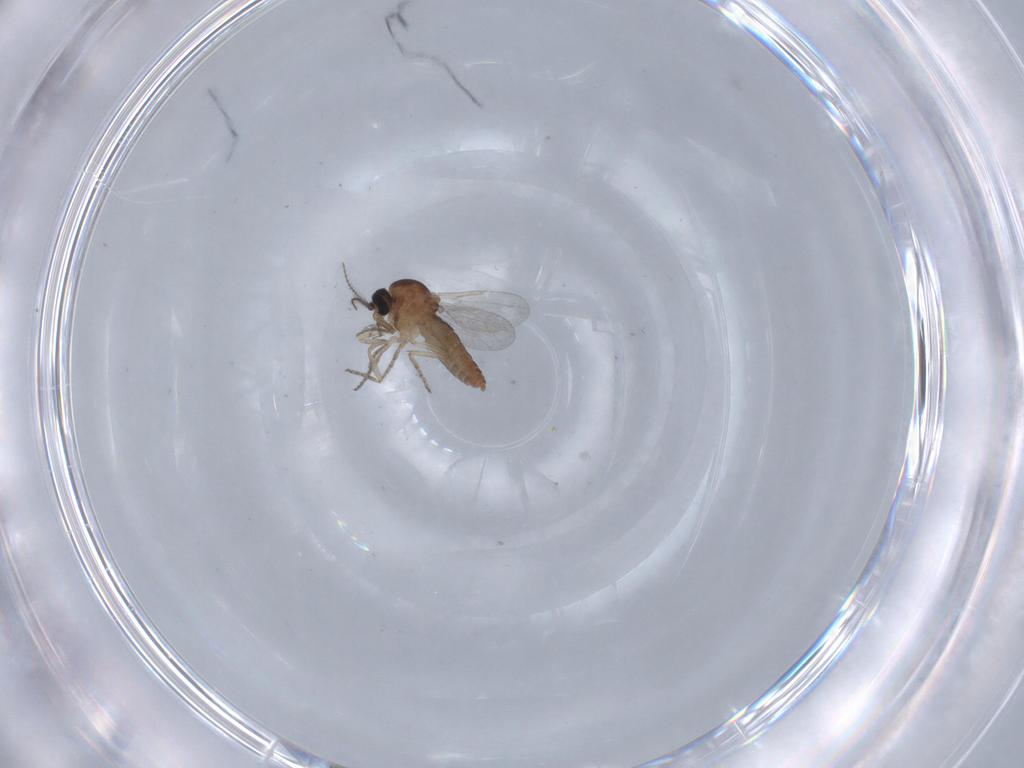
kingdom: Animalia
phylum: Arthropoda
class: Insecta
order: Diptera
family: Ceratopogonidae
